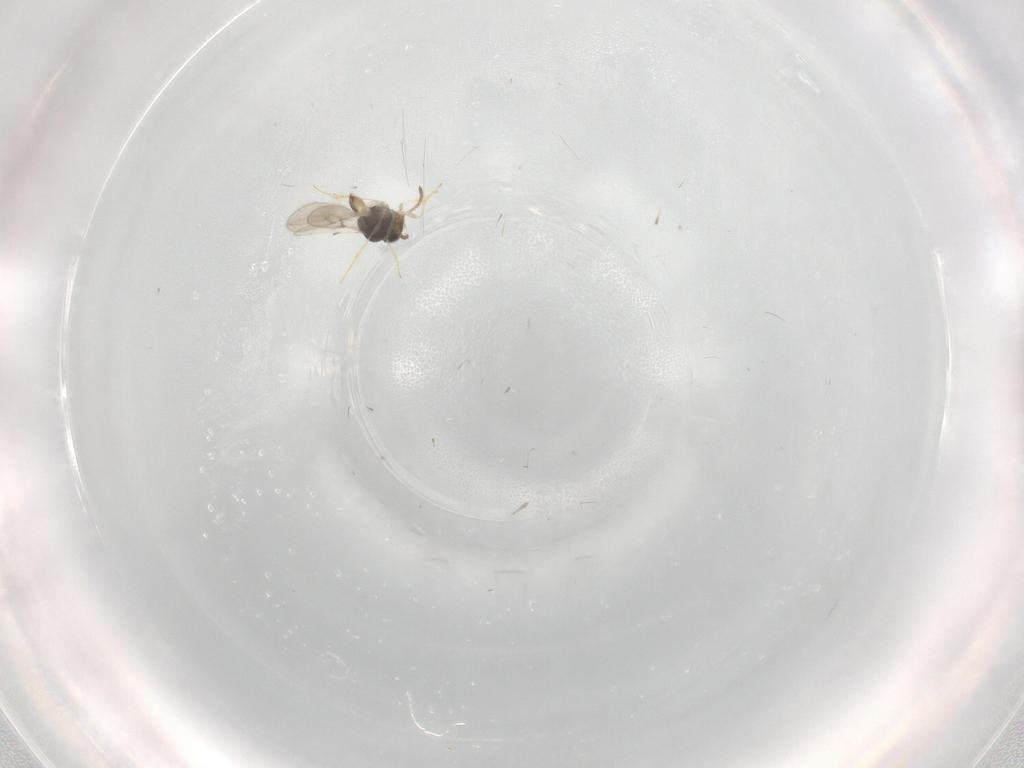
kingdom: Animalia
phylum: Arthropoda
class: Insecta
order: Hymenoptera
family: Scelionidae
